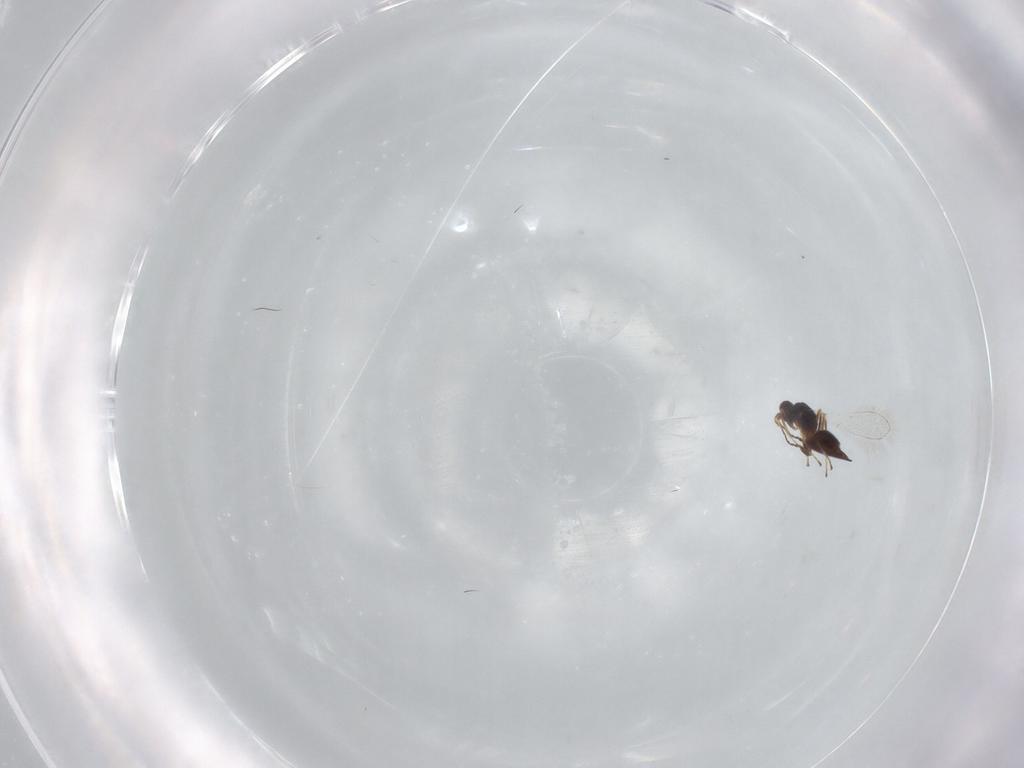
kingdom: Animalia
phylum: Arthropoda
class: Insecta
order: Hymenoptera
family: Mymaridae
